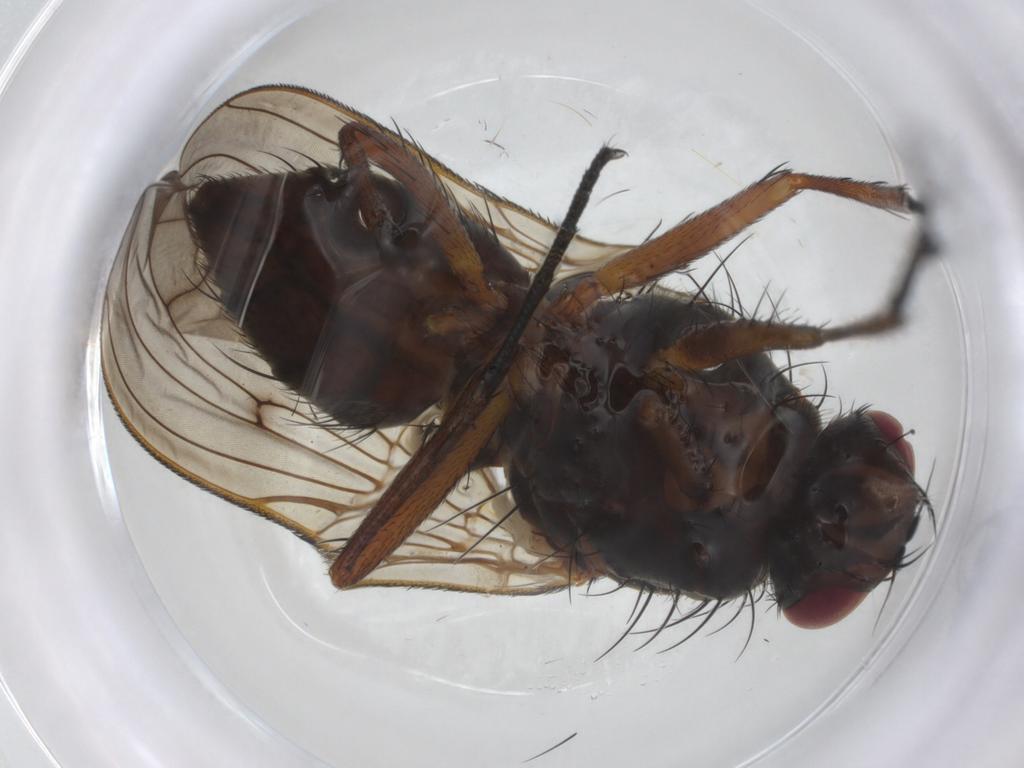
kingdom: Animalia
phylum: Arthropoda
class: Insecta
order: Diptera
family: Anthomyiidae
